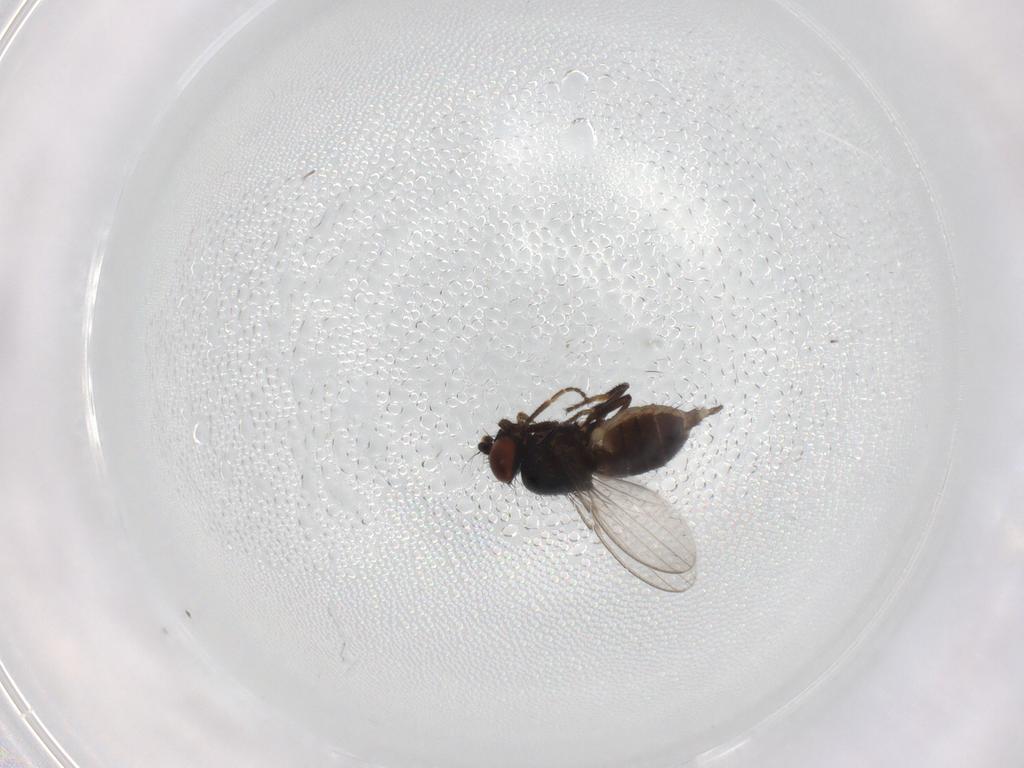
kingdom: Animalia
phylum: Arthropoda
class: Insecta
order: Diptera
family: Milichiidae
